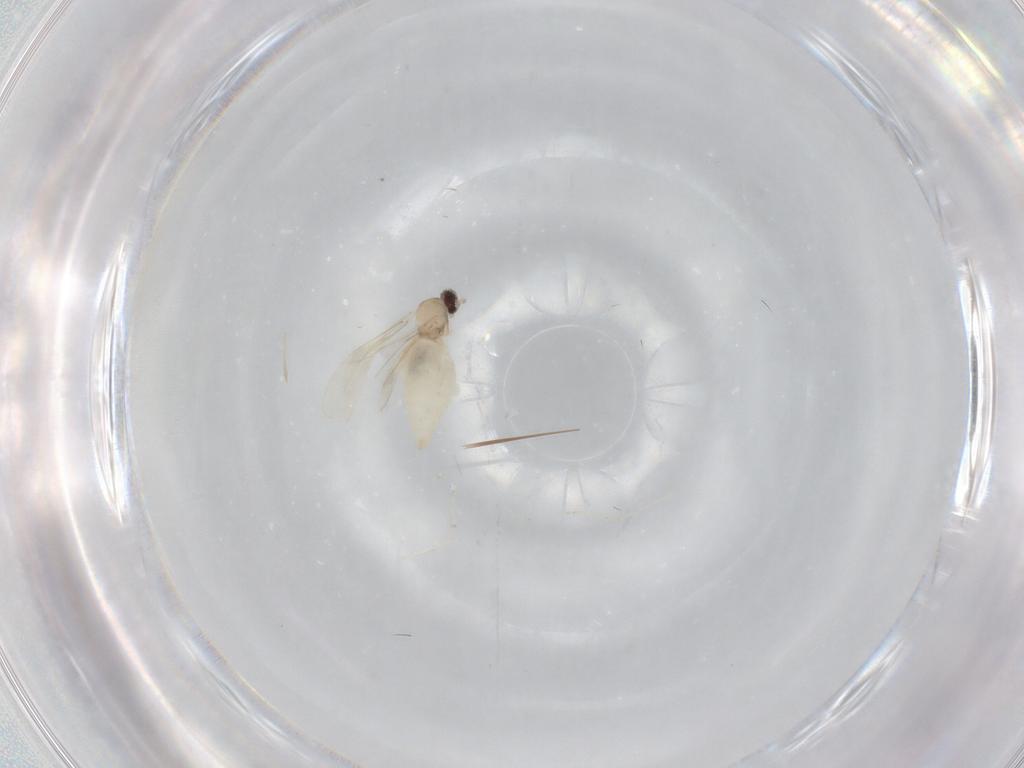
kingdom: Animalia
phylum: Arthropoda
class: Insecta
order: Diptera
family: Cecidomyiidae
